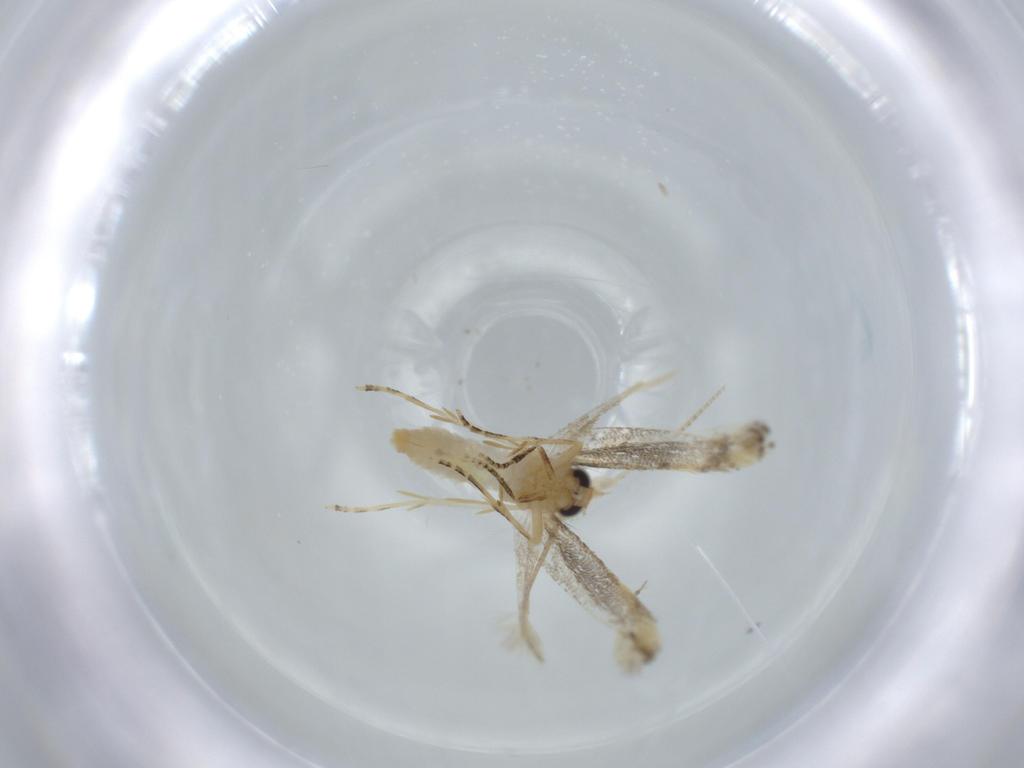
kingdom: Animalia
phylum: Arthropoda
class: Insecta
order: Lepidoptera
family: Bucculatricidae
